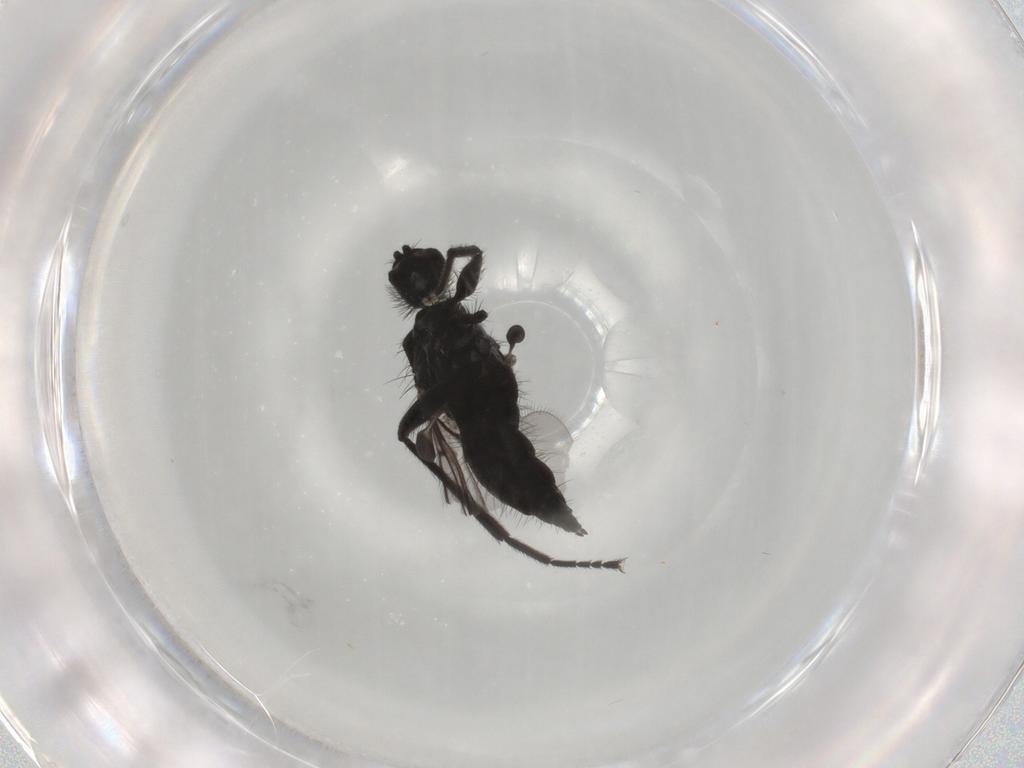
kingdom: Animalia
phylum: Arthropoda
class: Insecta
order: Diptera
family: Hybotidae
